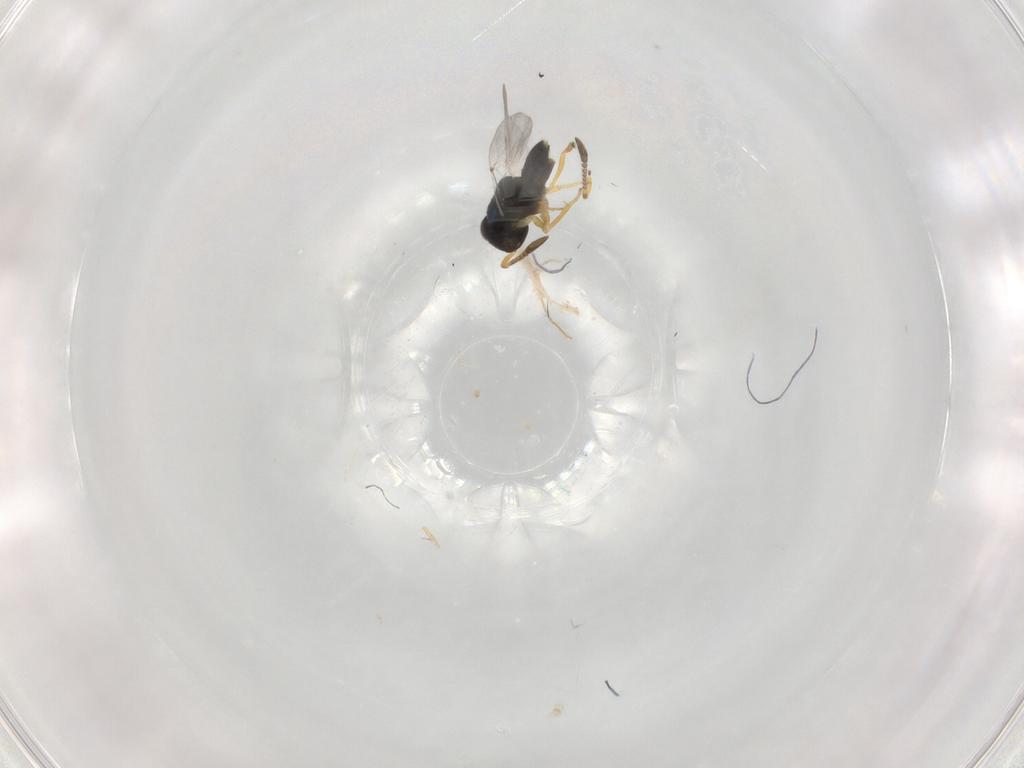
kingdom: Animalia
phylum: Arthropoda
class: Insecta
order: Hymenoptera
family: Encyrtidae
